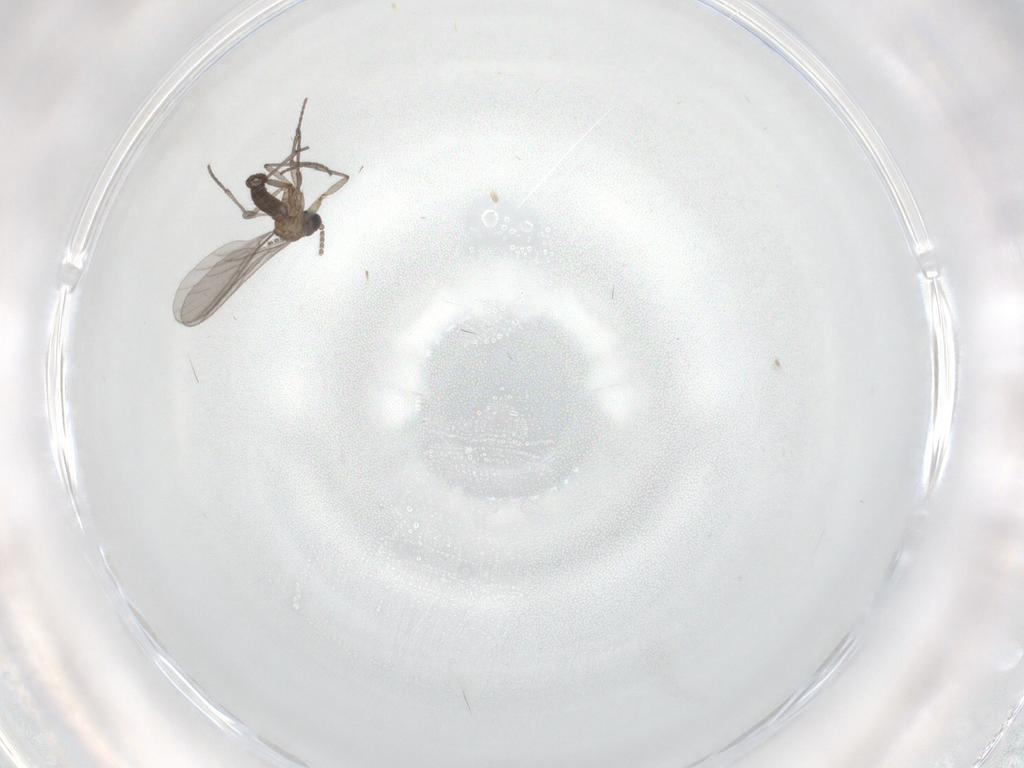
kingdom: Animalia
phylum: Arthropoda
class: Insecta
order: Diptera
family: Sciaridae
